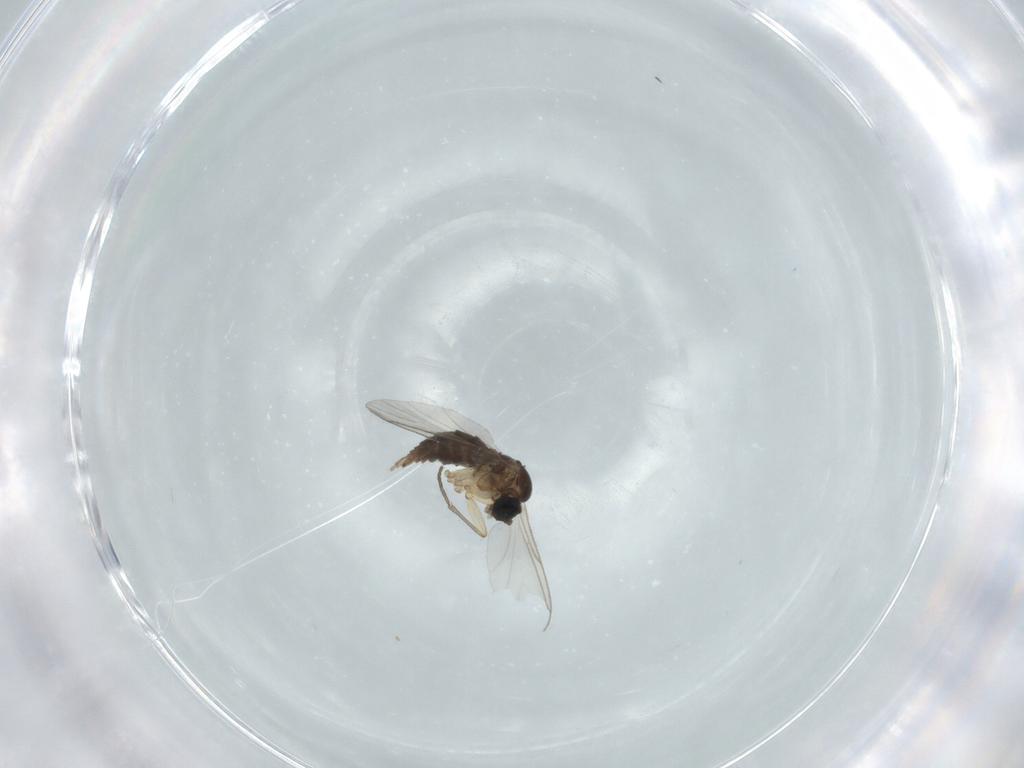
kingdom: Animalia
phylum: Arthropoda
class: Insecta
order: Diptera
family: Sciaridae
